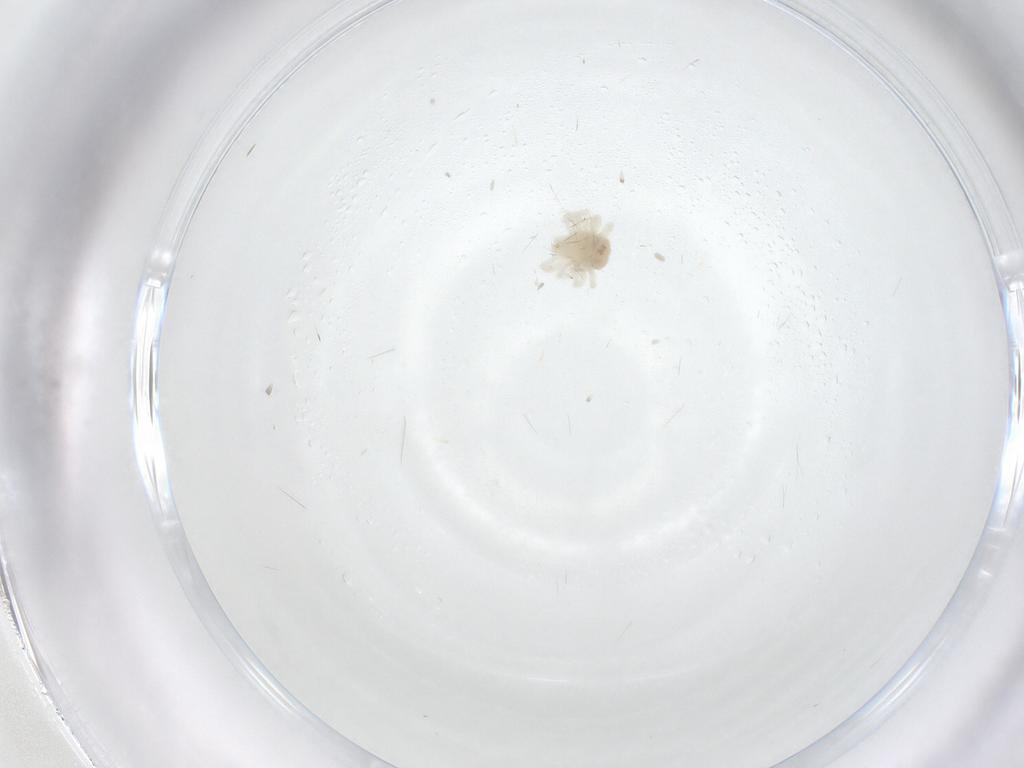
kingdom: Animalia
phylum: Arthropoda
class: Arachnida
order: Trombidiformes
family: Anystidae
